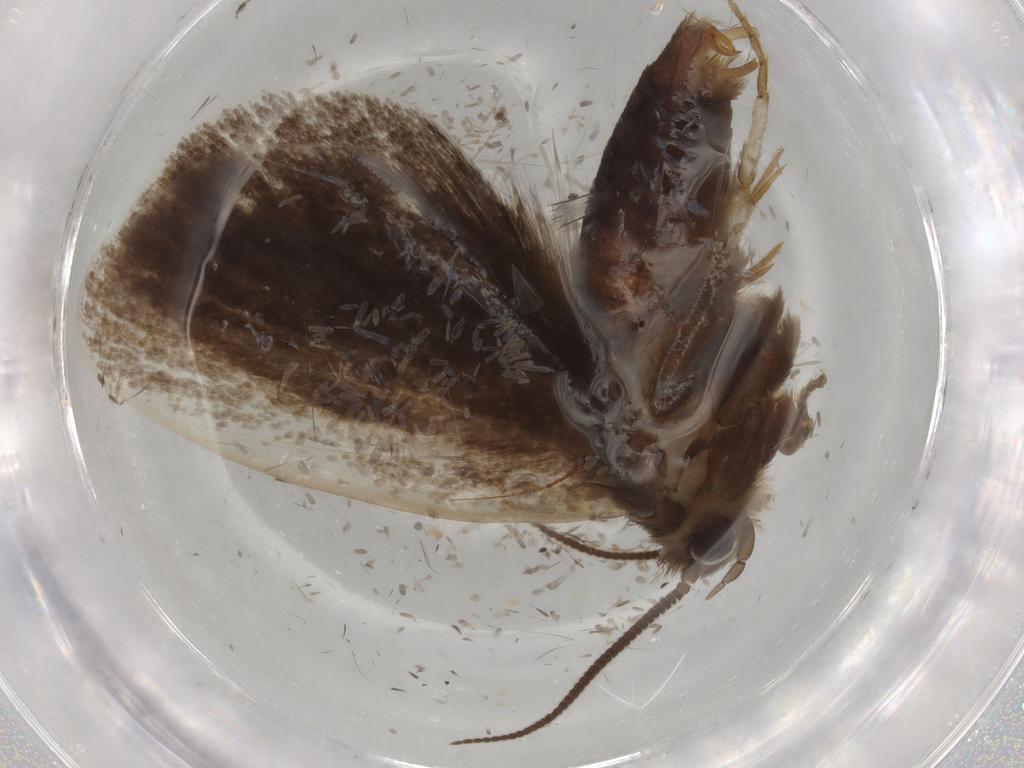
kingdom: Animalia
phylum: Arthropoda
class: Insecta
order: Lepidoptera
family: Tineidae
